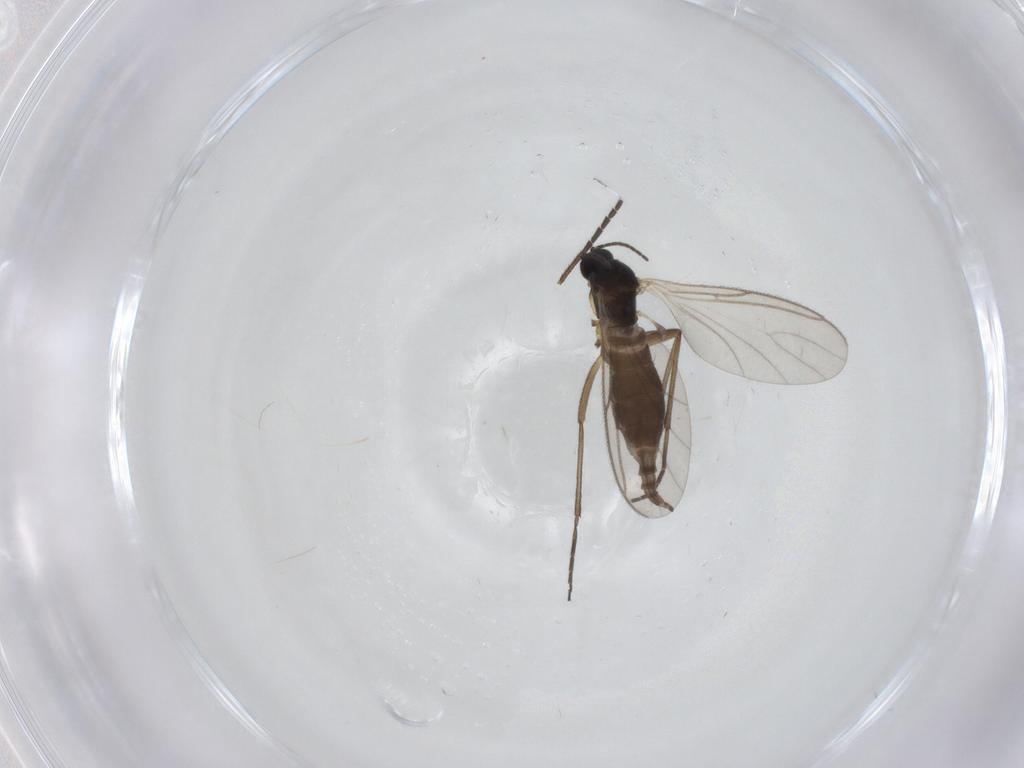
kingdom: Animalia
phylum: Arthropoda
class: Insecta
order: Diptera
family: Sciaridae
